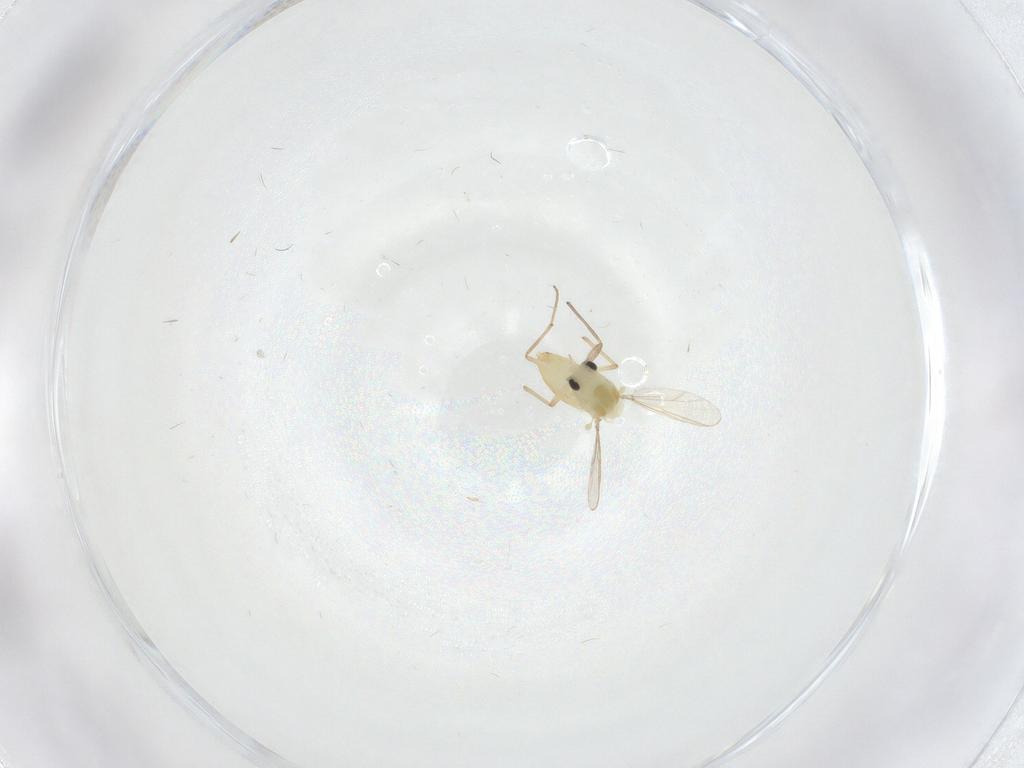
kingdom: Animalia
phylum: Arthropoda
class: Insecta
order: Diptera
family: Chironomidae
